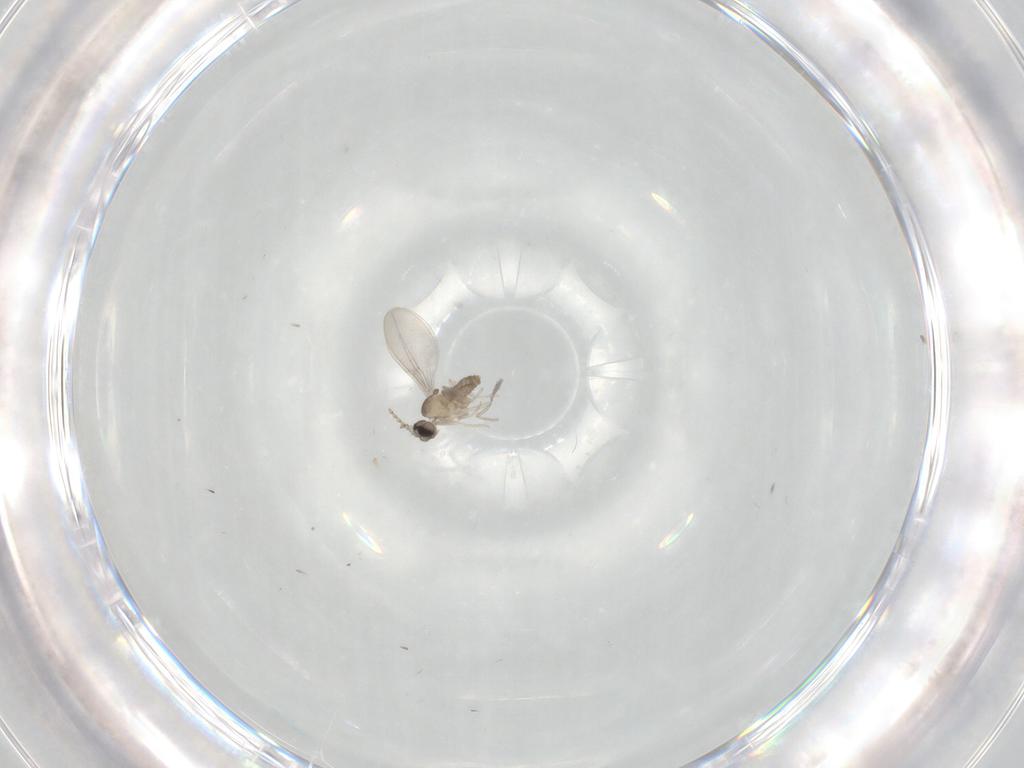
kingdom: Animalia
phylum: Arthropoda
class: Insecta
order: Diptera
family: Cecidomyiidae
